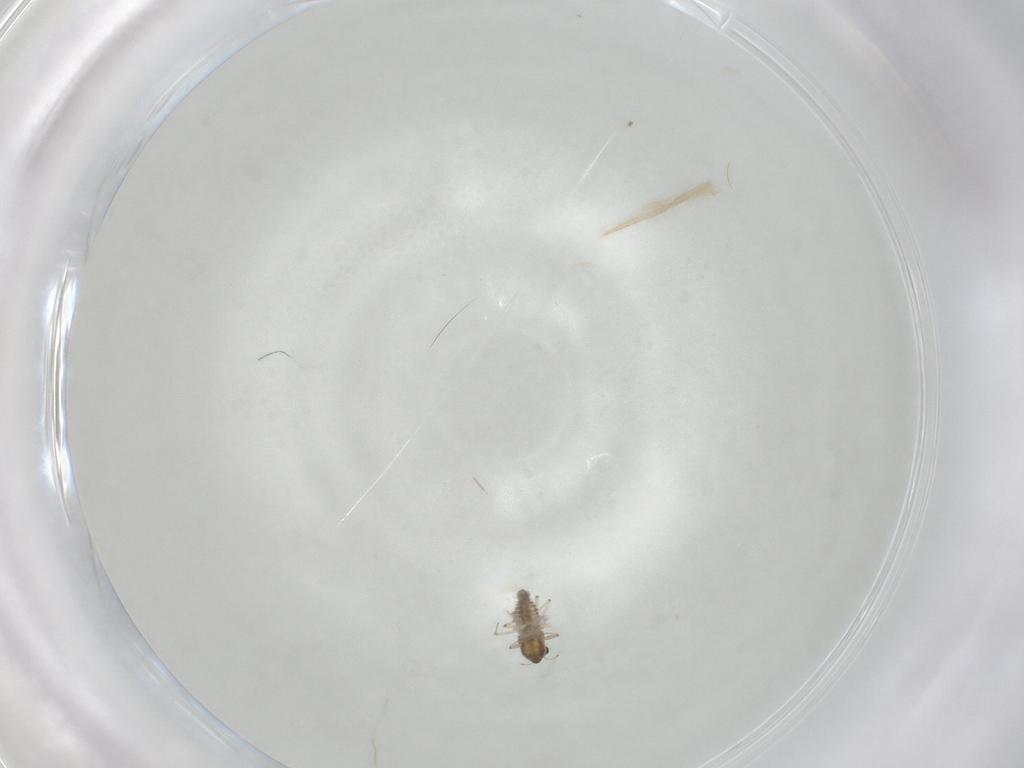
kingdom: Animalia
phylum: Arthropoda
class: Insecta
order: Diptera
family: Chironomidae
